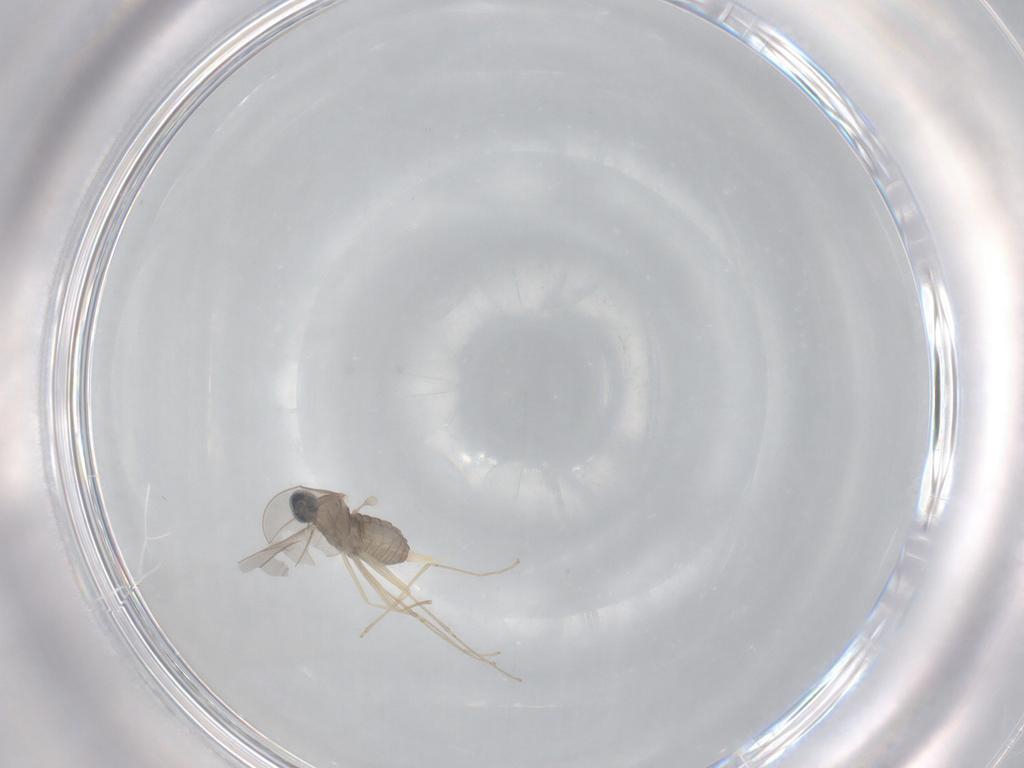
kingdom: Animalia
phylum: Arthropoda
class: Insecta
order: Diptera
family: Cecidomyiidae
